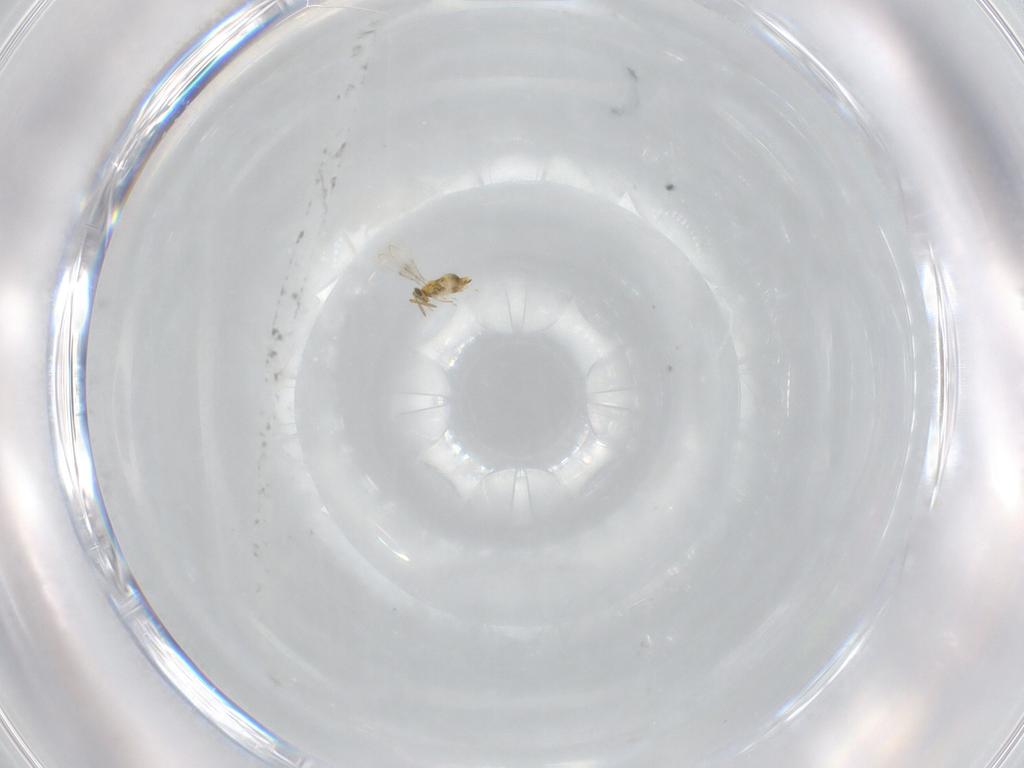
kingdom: Animalia
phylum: Arthropoda
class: Insecta
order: Hymenoptera
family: Aphelinidae
